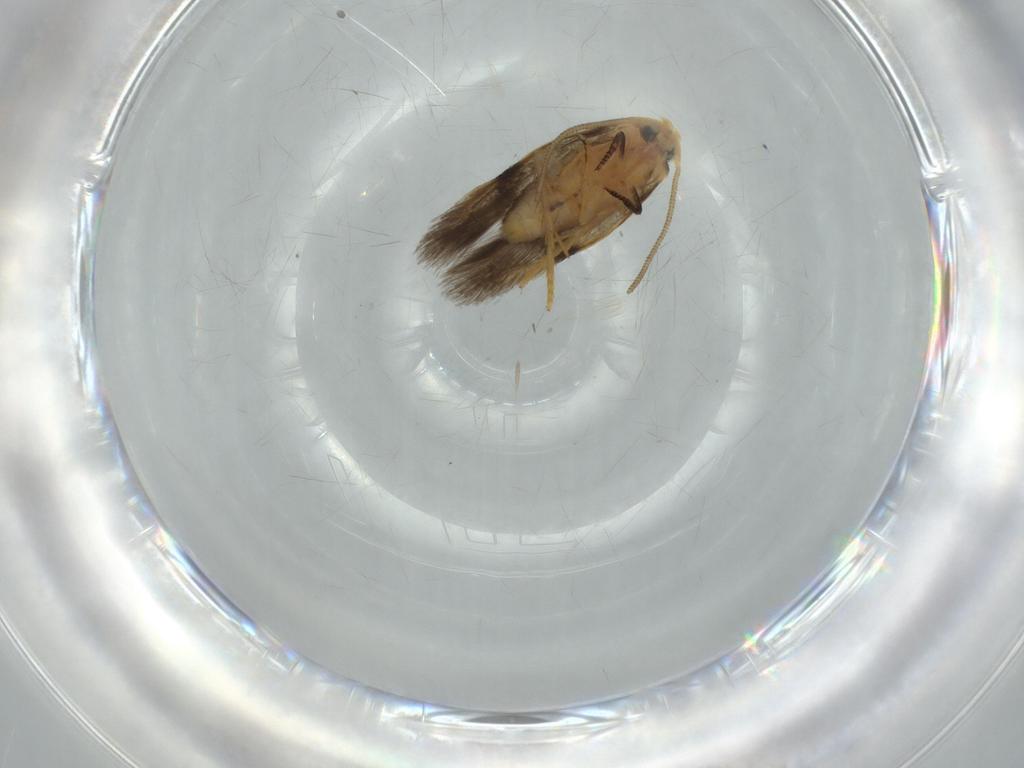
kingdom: Animalia
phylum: Arthropoda
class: Insecta
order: Lepidoptera
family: Nepticulidae
